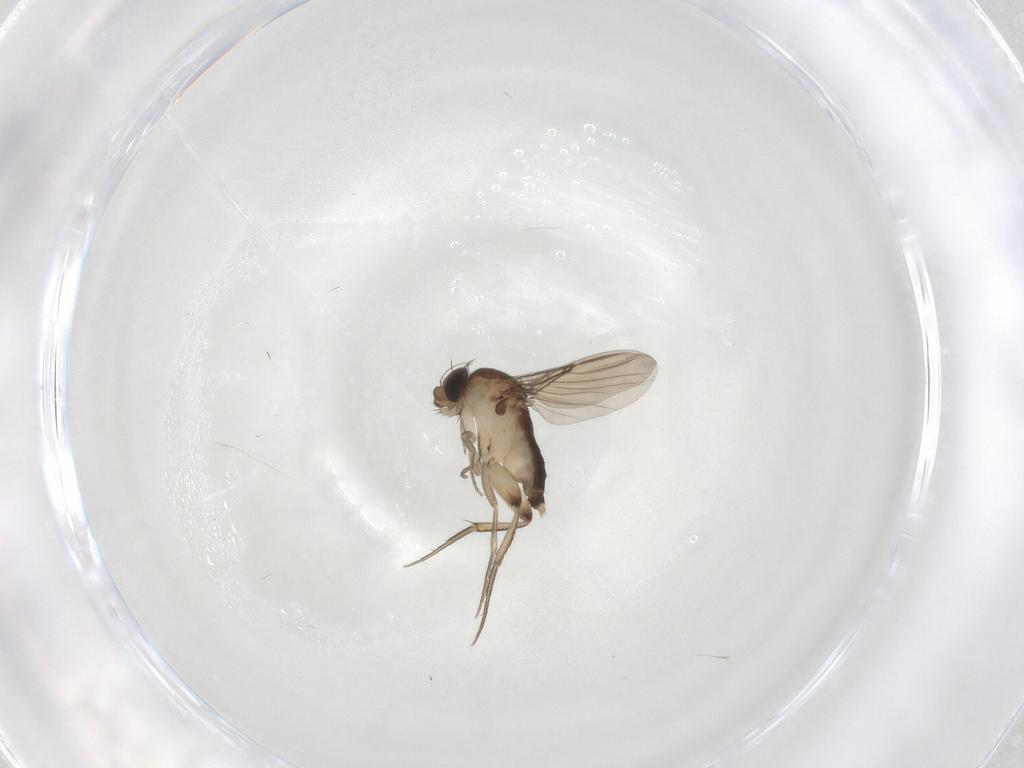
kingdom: Animalia
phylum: Arthropoda
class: Insecta
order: Diptera
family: Phoridae
